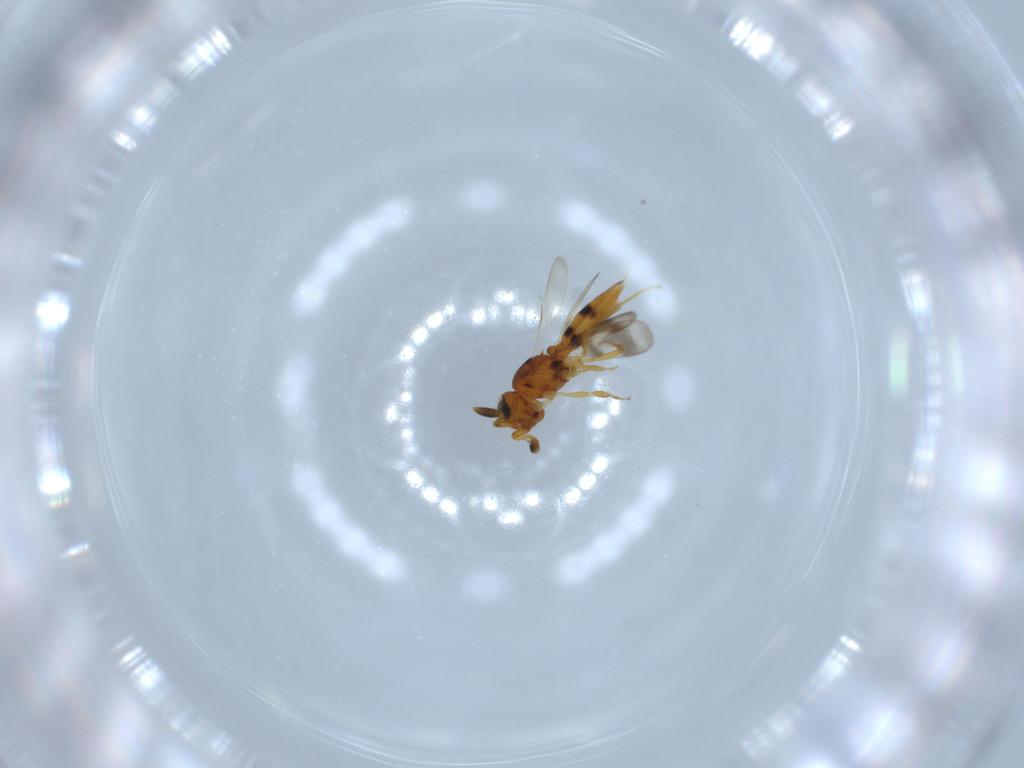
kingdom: Animalia
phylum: Arthropoda
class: Insecta
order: Hymenoptera
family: Scelionidae
